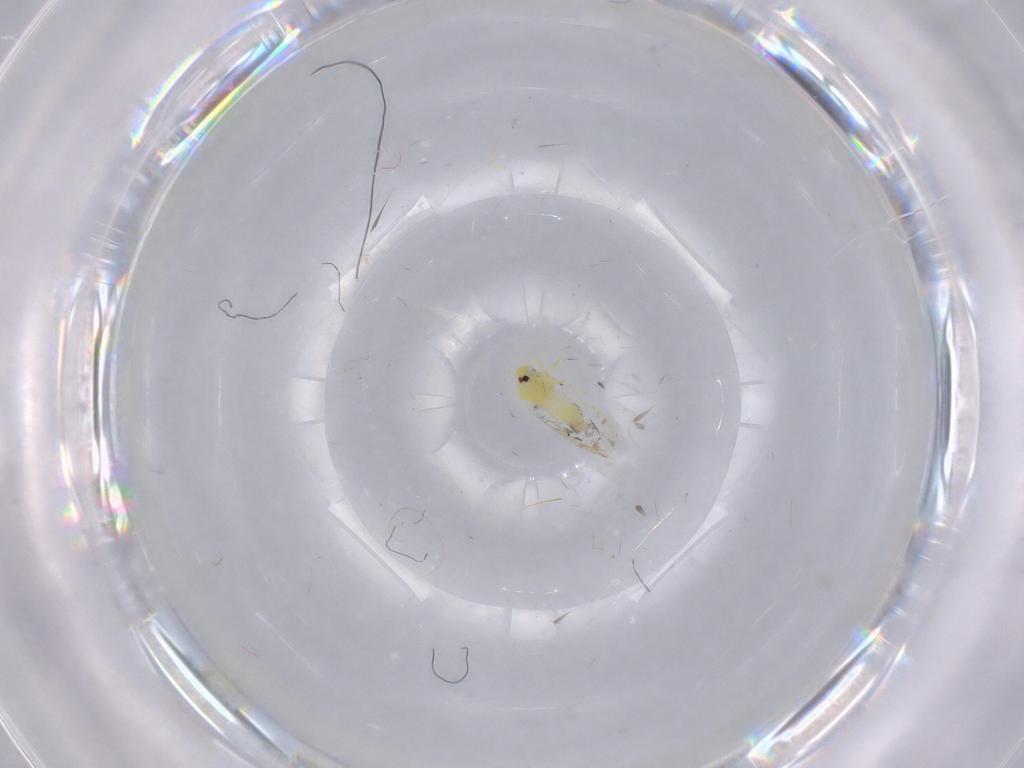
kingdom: Animalia
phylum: Arthropoda
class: Insecta
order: Hemiptera
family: Aleyrodidae
